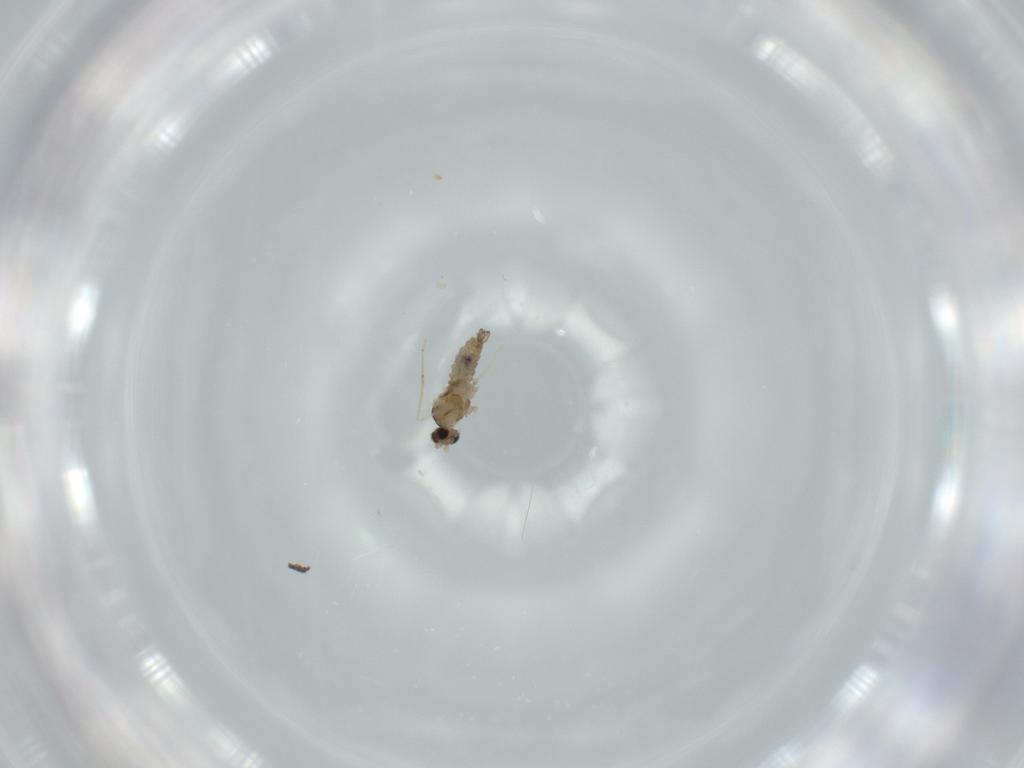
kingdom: Animalia
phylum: Arthropoda
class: Insecta
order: Diptera
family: Cecidomyiidae
